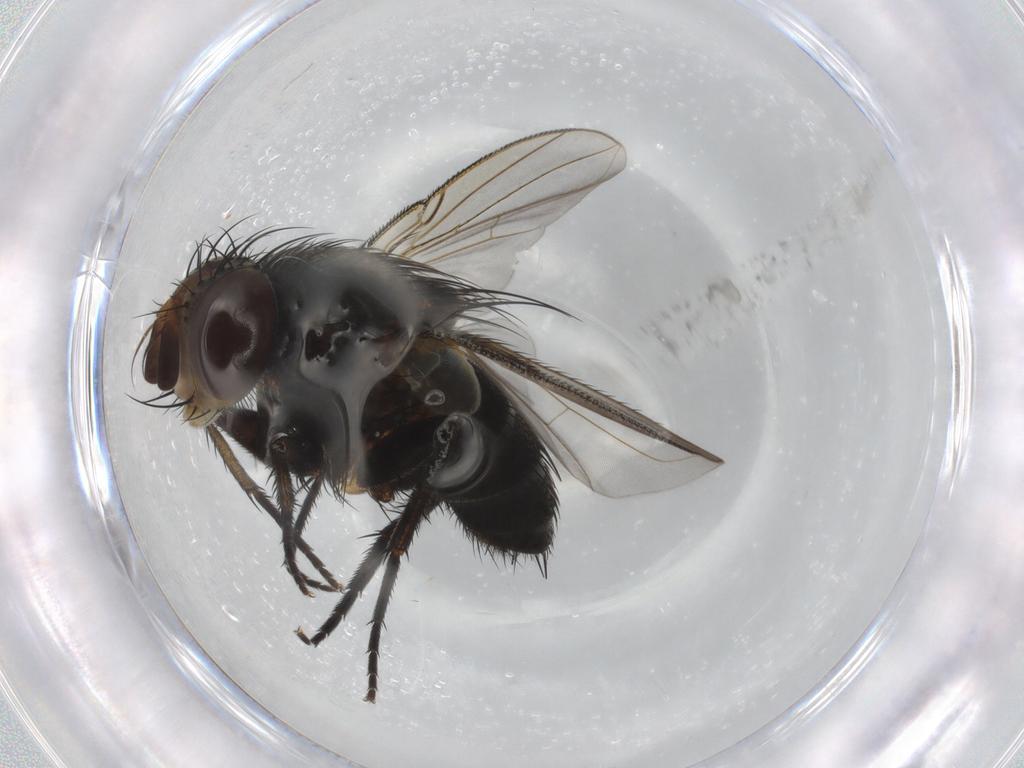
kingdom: Animalia
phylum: Arthropoda
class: Insecta
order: Diptera
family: Tachinidae
